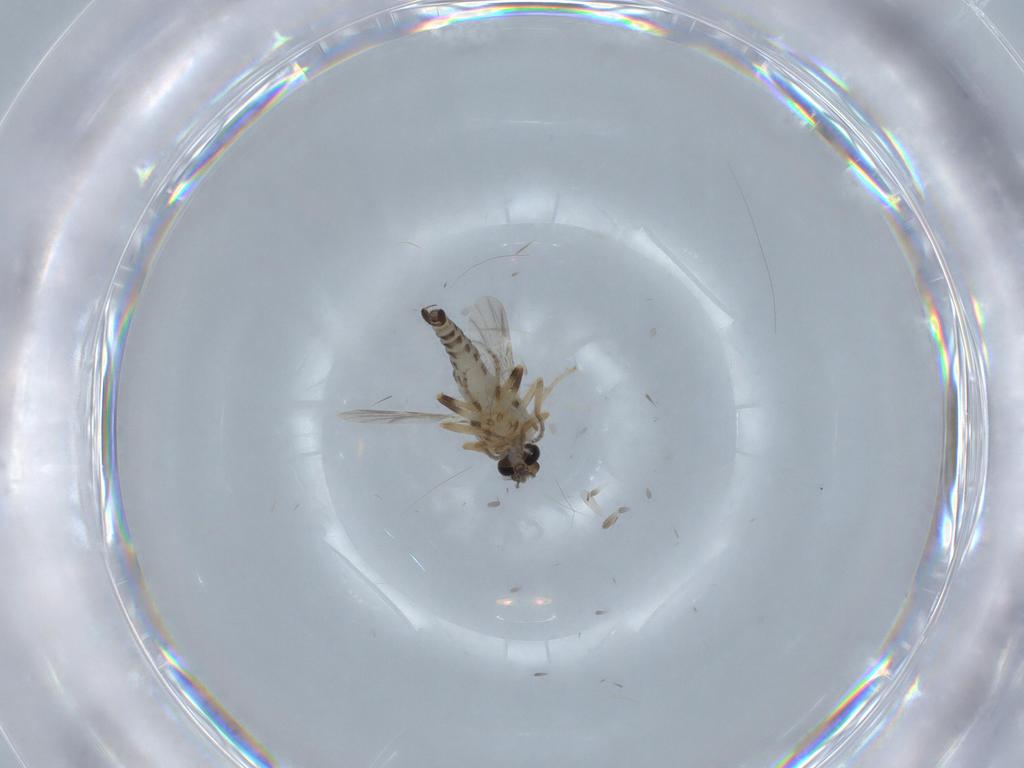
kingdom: Animalia
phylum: Arthropoda
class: Insecta
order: Diptera
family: Ceratopogonidae
